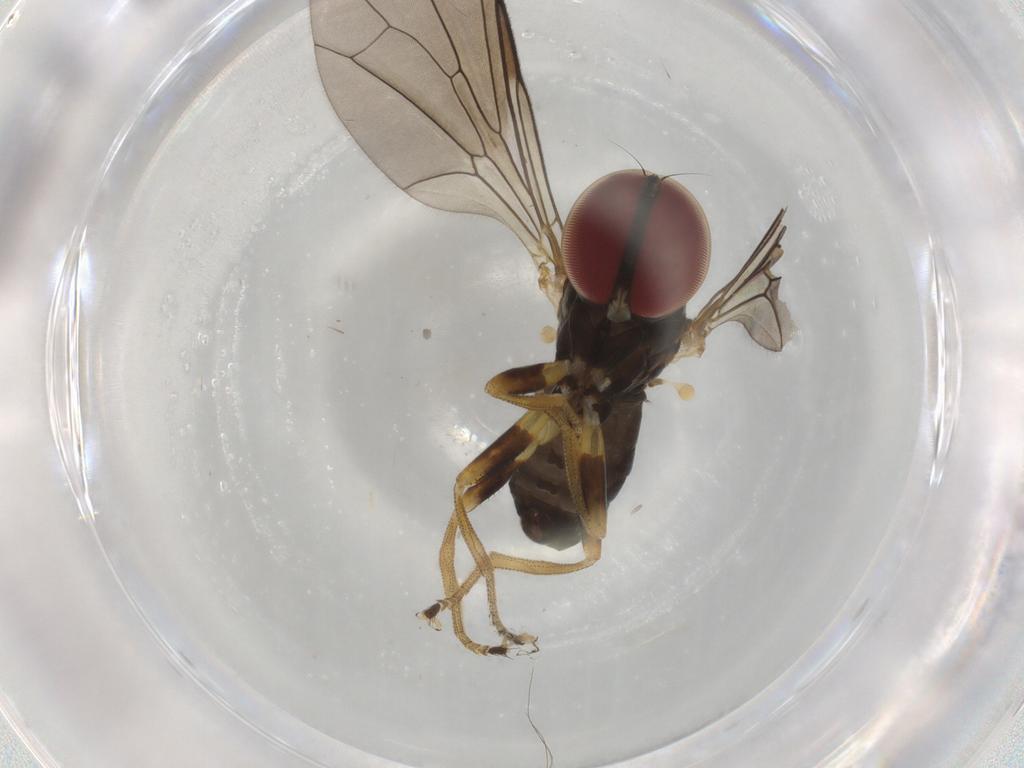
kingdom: Animalia
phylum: Arthropoda
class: Insecta
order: Diptera
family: Pipunculidae
